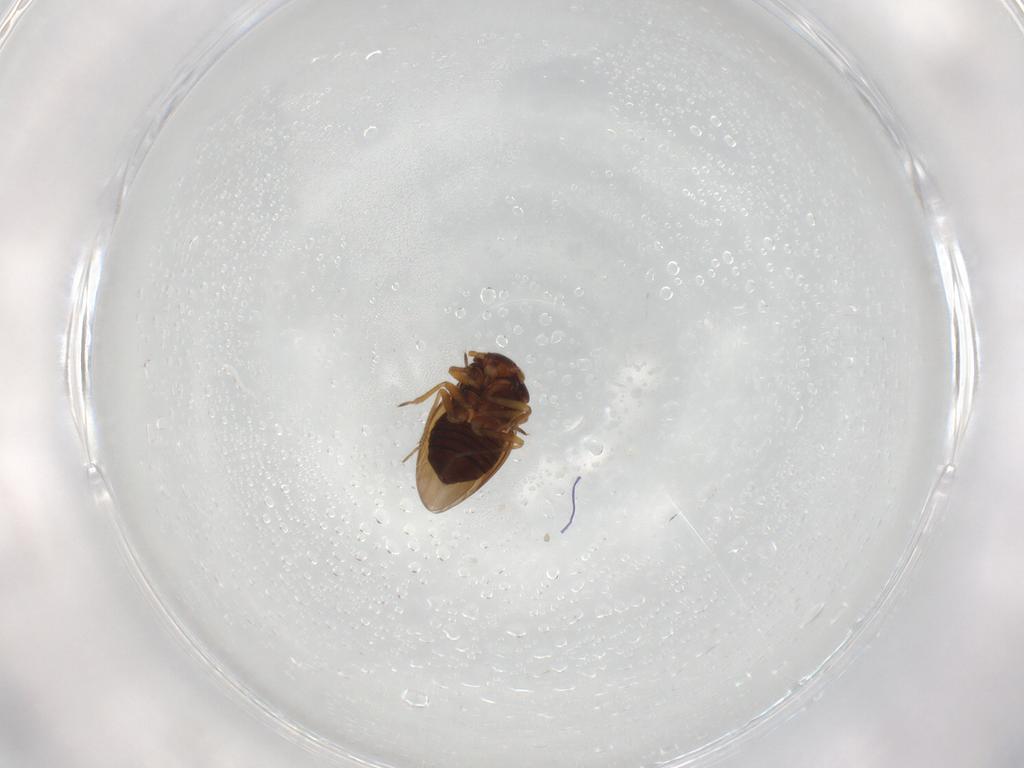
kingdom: Animalia
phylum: Arthropoda
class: Insecta
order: Hemiptera
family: Schizopteridae
